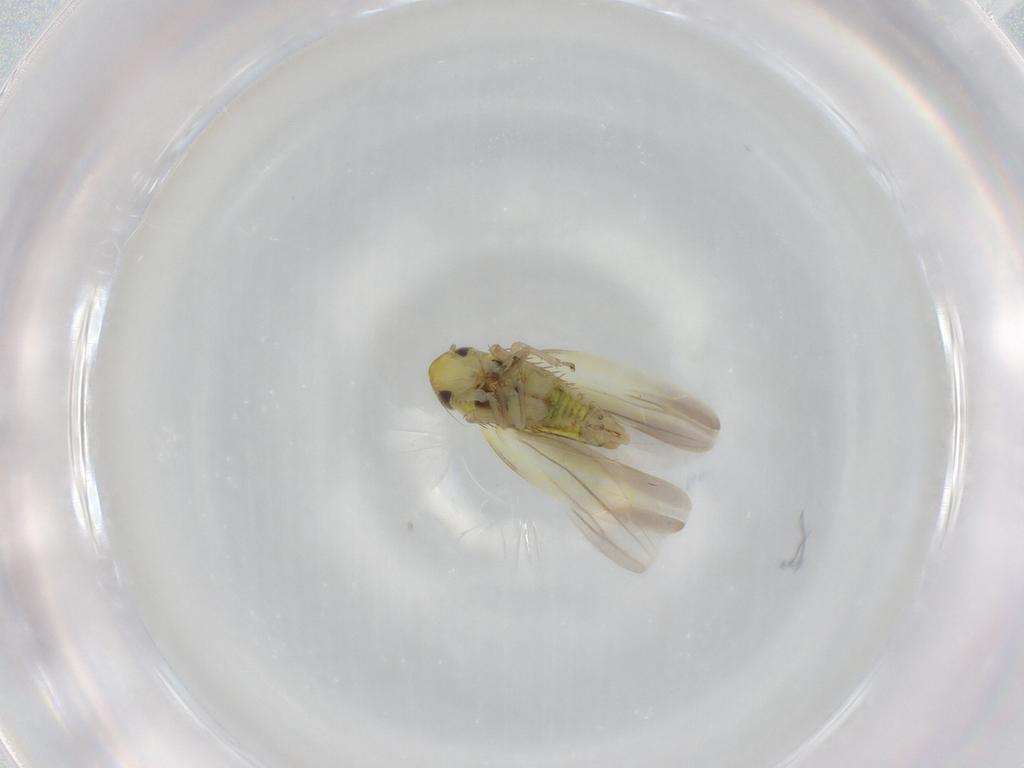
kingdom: Animalia
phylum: Arthropoda
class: Insecta
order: Hemiptera
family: Cicadellidae
